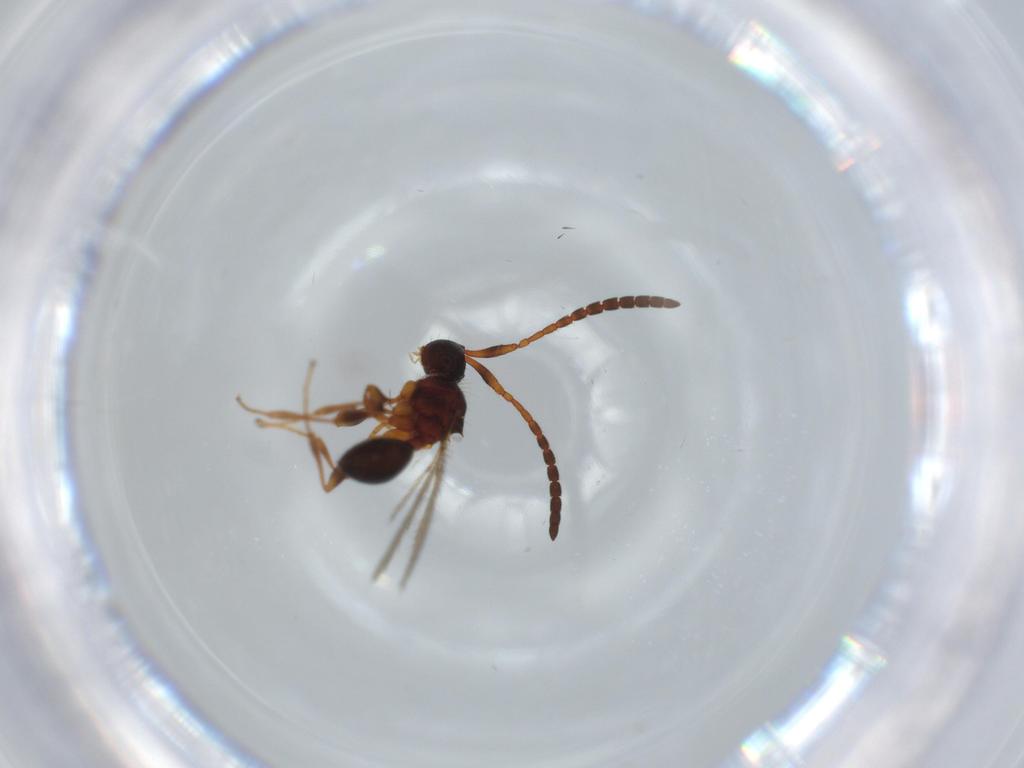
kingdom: Animalia
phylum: Arthropoda
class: Insecta
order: Hymenoptera
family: Diapriidae
